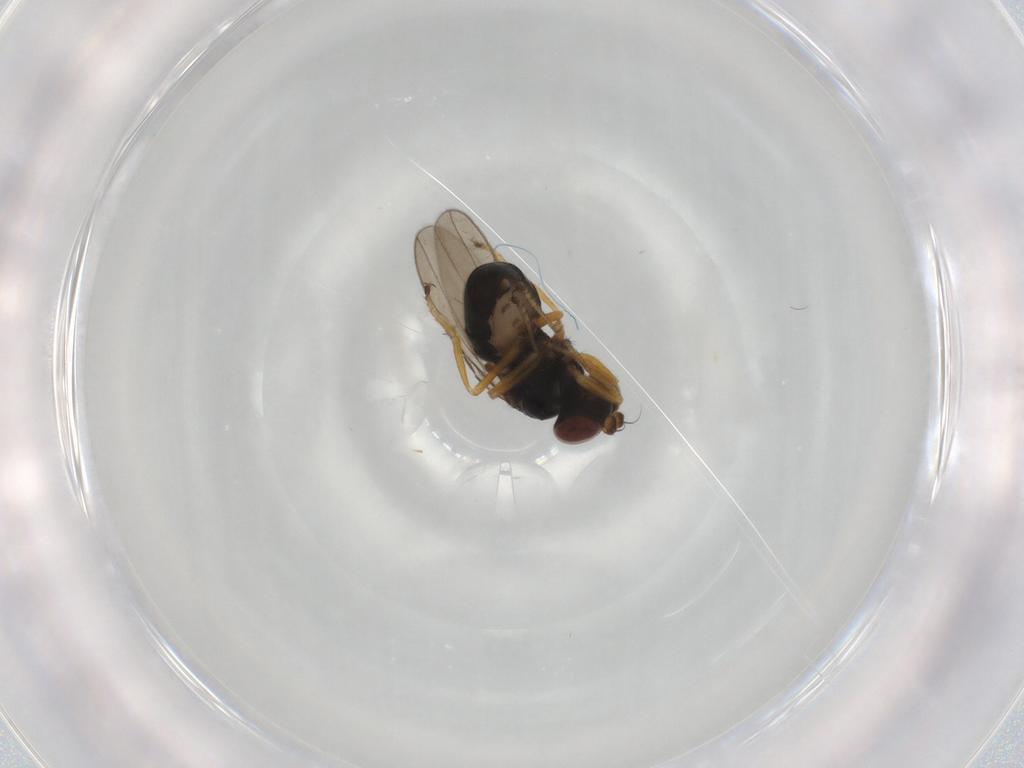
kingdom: Animalia
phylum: Arthropoda
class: Insecta
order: Diptera
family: Ephydridae
